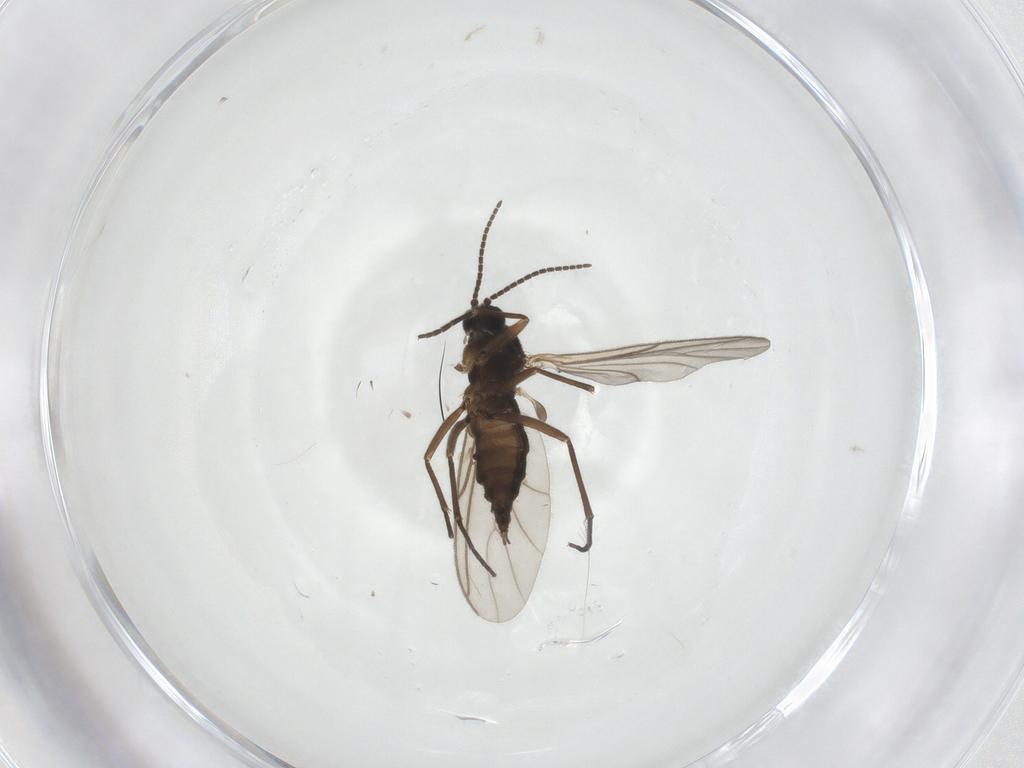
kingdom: Animalia
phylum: Arthropoda
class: Insecta
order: Diptera
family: Sciaridae
